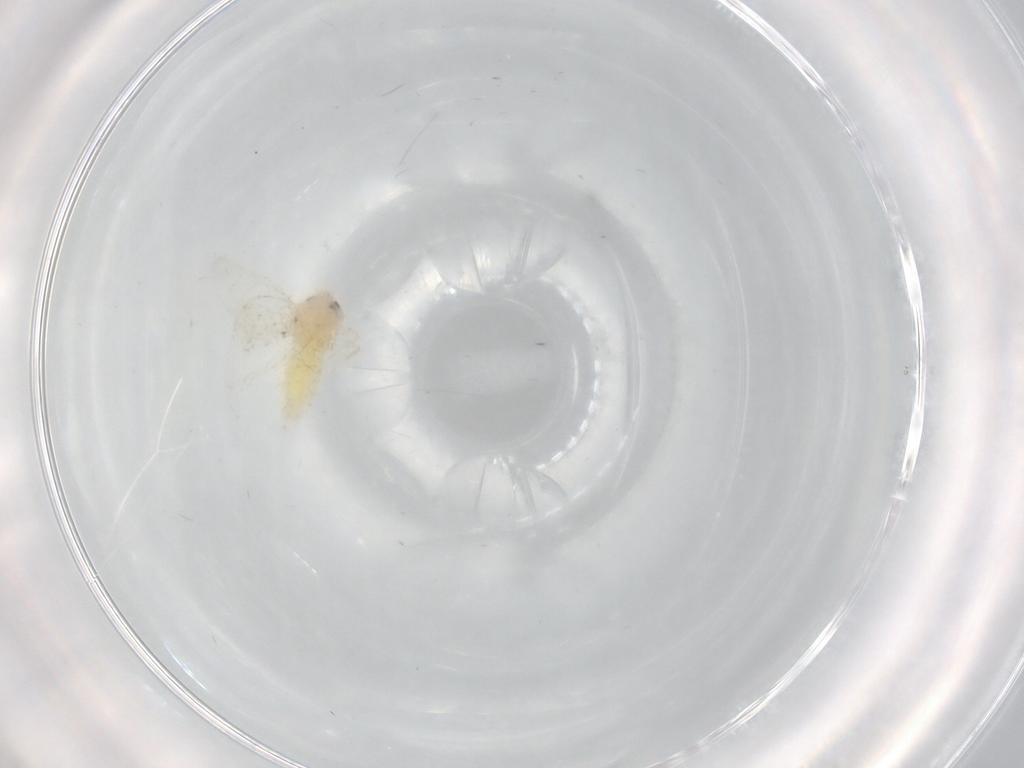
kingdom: Animalia
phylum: Arthropoda
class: Insecta
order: Hemiptera
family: Aleyrodidae
